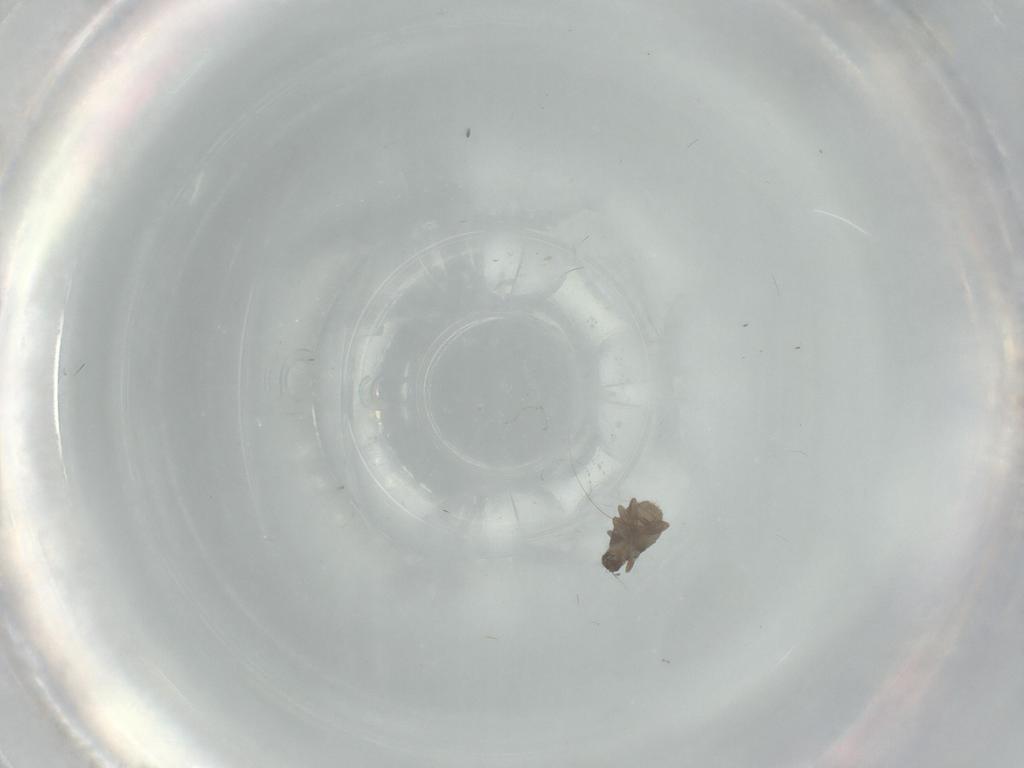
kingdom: Animalia
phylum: Arthropoda
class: Insecta
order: Diptera
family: Phoridae
